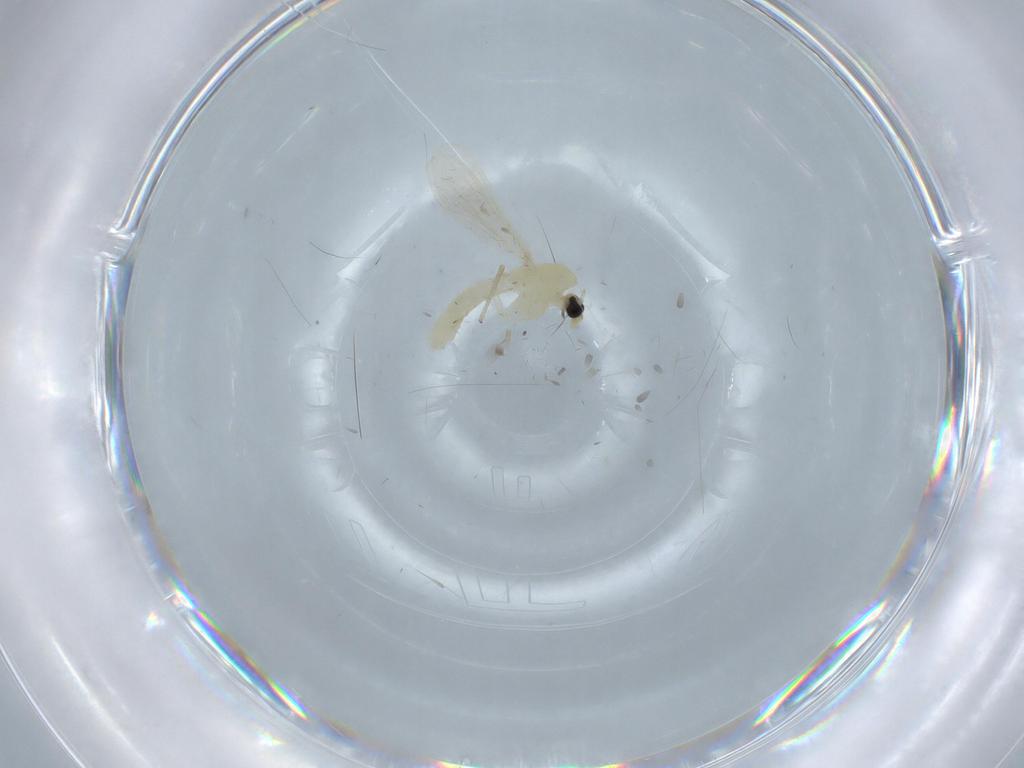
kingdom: Animalia
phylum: Arthropoda
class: Insecta
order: Diptera
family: Chironomidae
